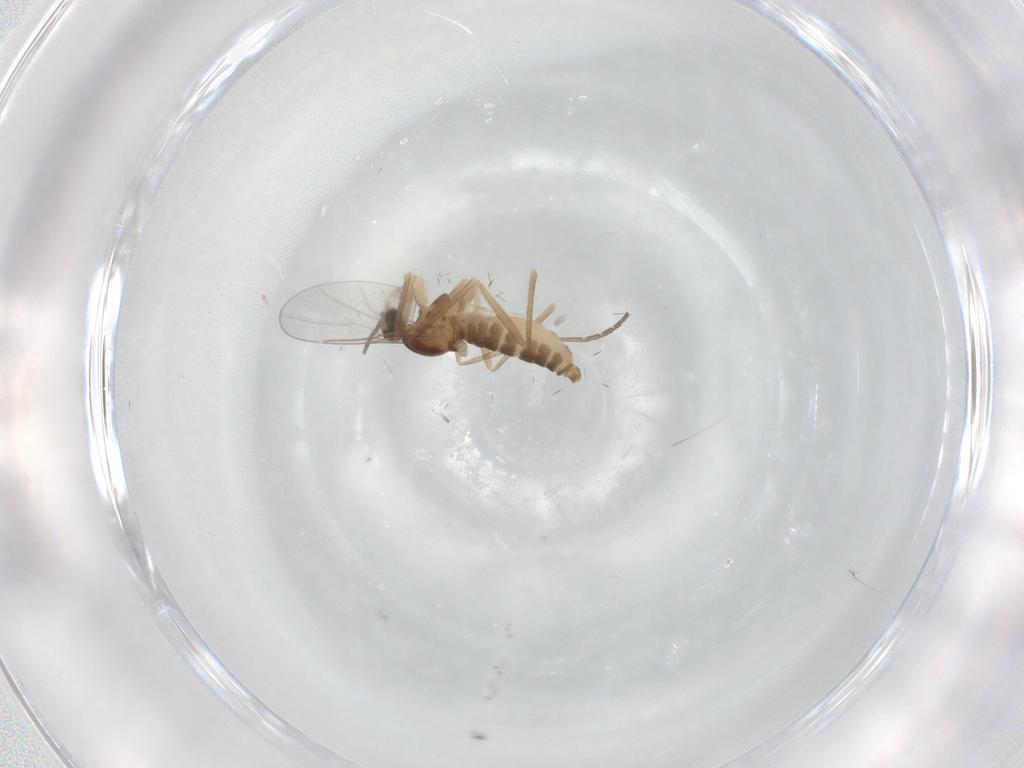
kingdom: Animalia
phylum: Arthropoda
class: Insecta
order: Diptera
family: Cecidomyiidae
